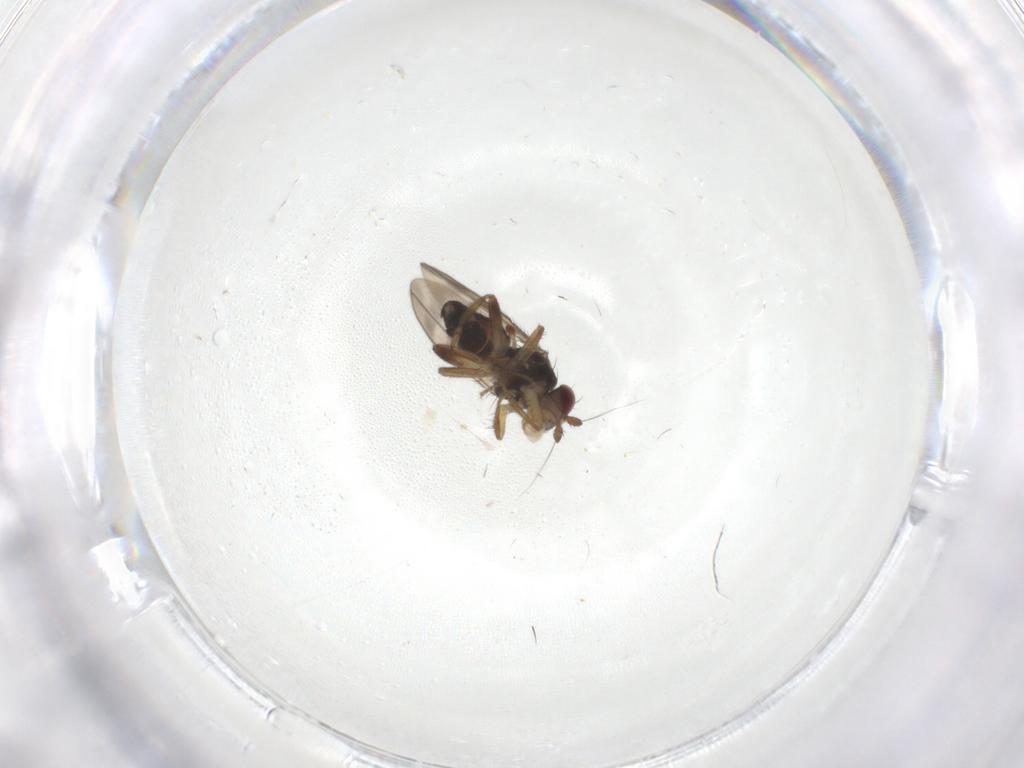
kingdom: Animalia
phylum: Arthropoda
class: Insecta
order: Diptera
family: Sphaeroceridae
